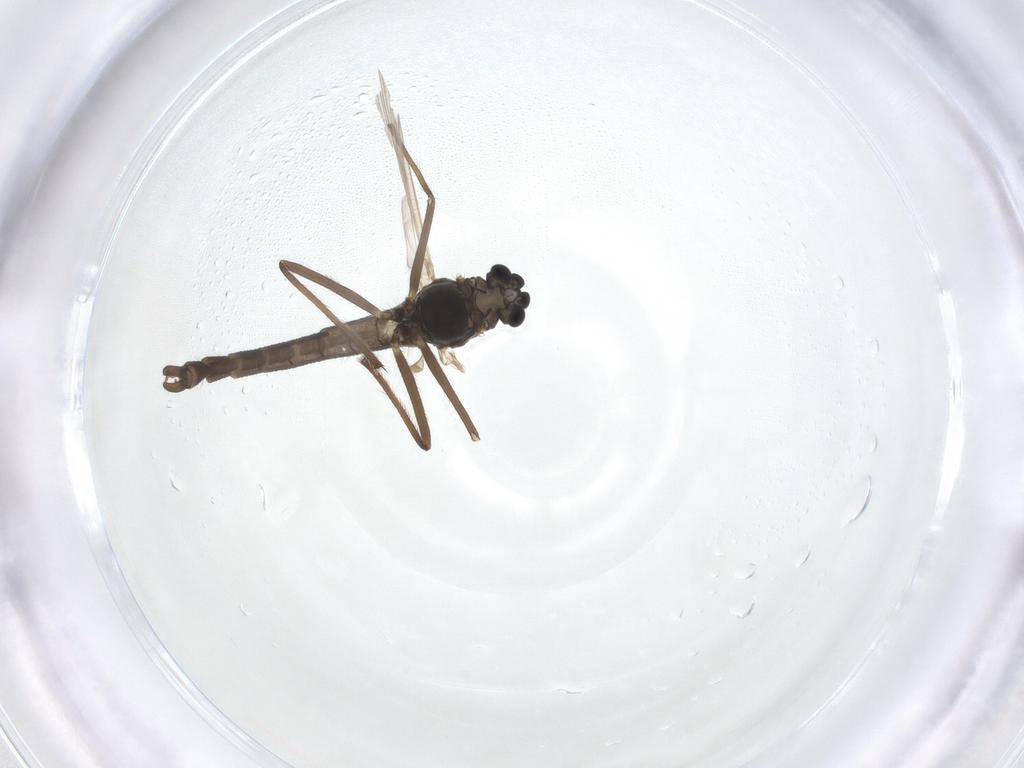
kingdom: Animalia
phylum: Arthropoda
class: Insecta
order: Diptera
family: Chironomidae
